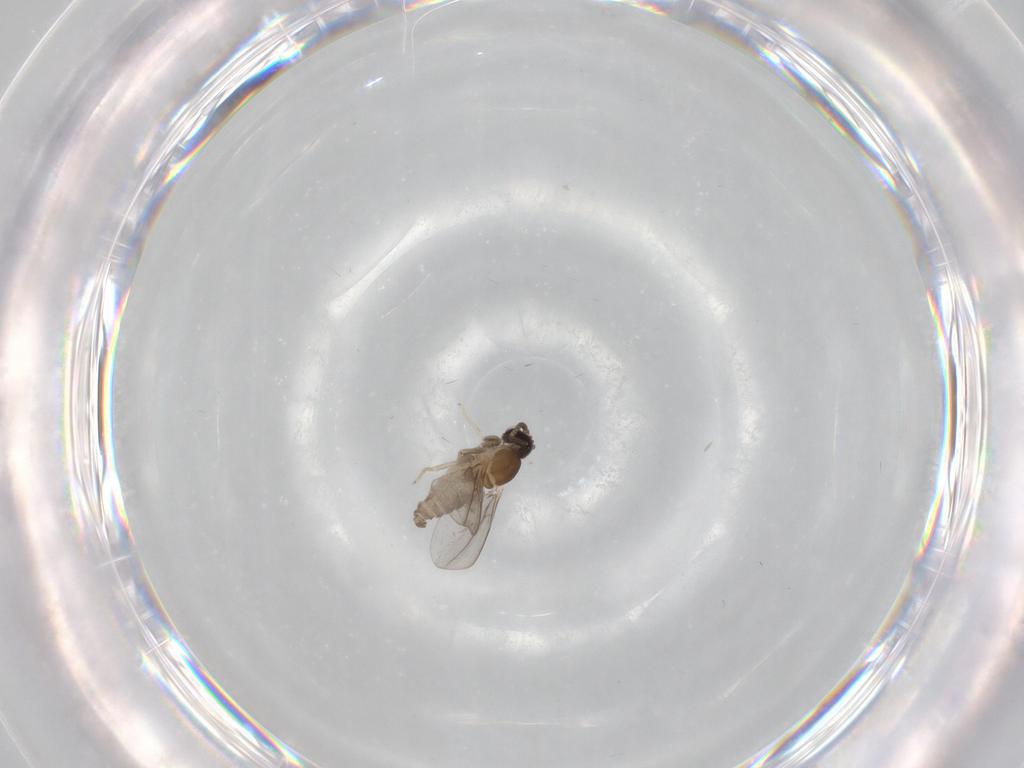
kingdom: Animalia
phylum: Arthropoda
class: Insecta
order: Diptera
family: Cecidomyiidae
